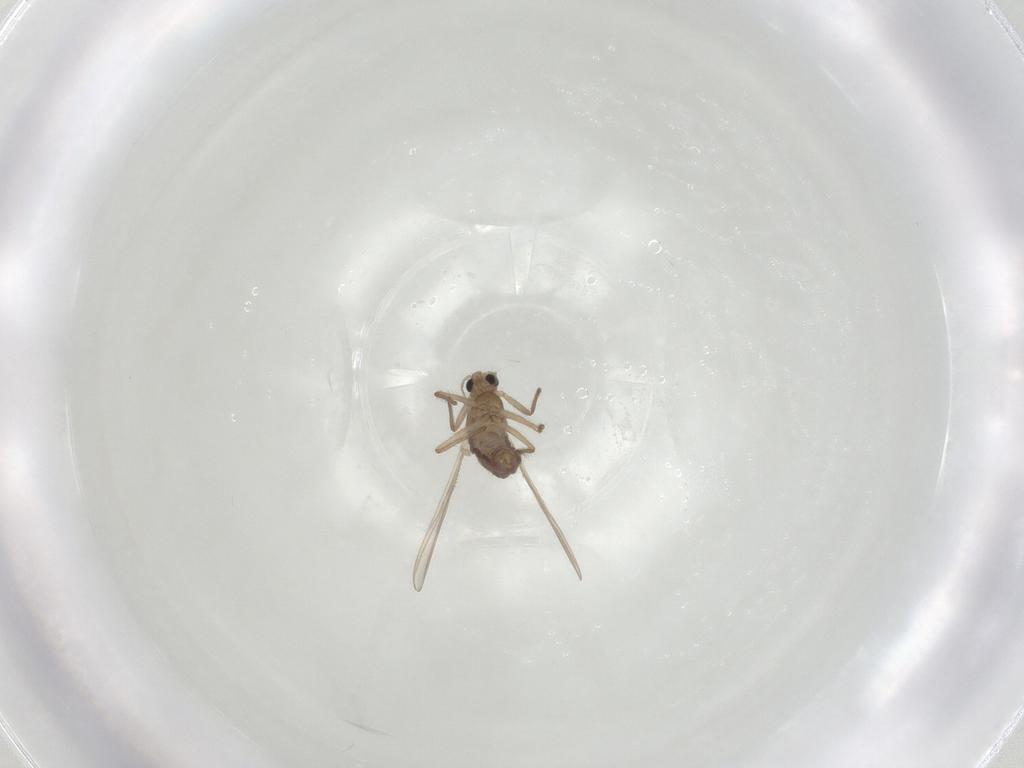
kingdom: Animalia
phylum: Arthropoda
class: Insecta
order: Diptera
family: Chironomidae
